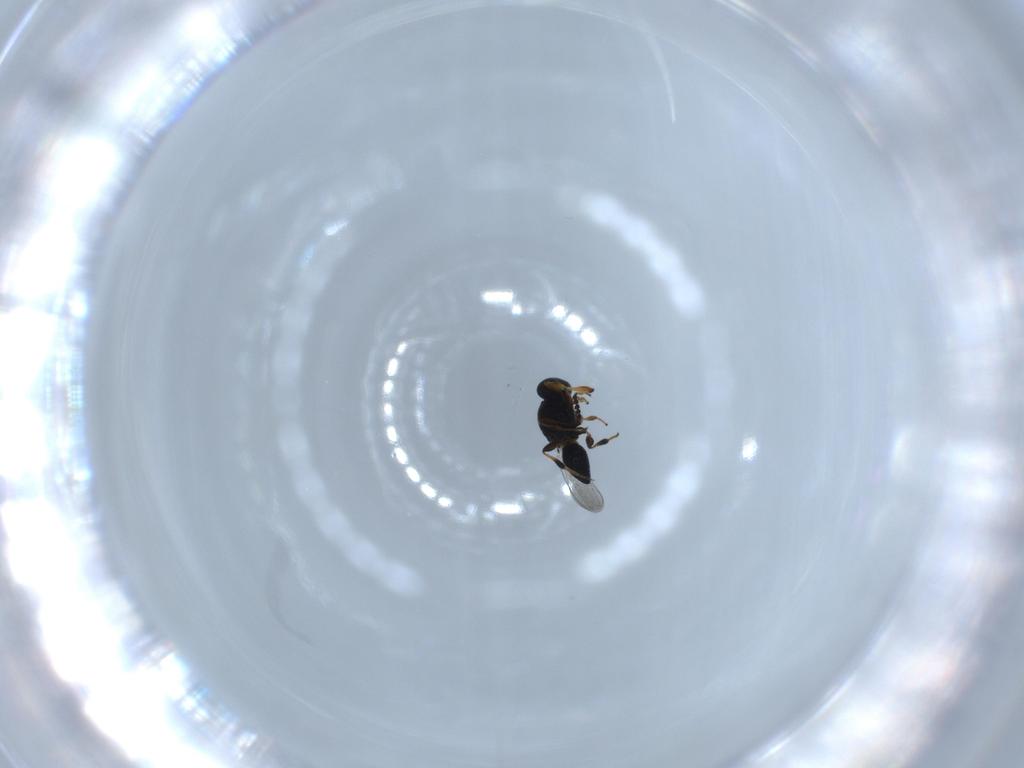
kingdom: Animalia
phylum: Arthropoda
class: Insecta
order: Hymenoptera
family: Platygastridae
